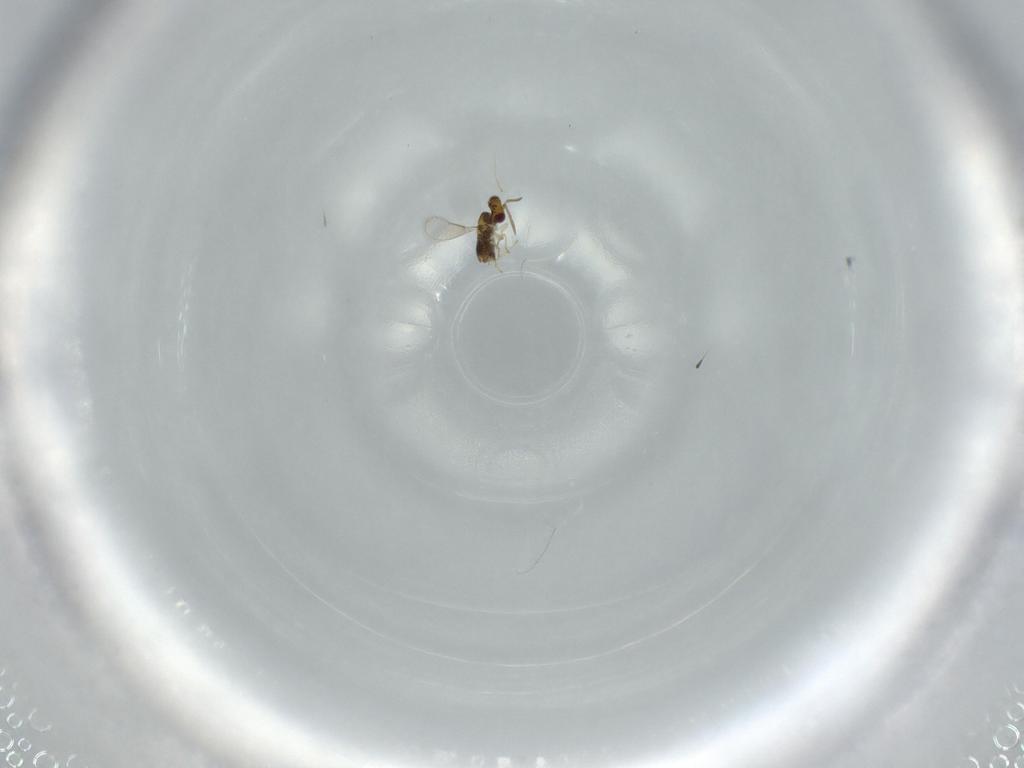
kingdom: Animalia
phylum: Arthropoda
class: Insecta
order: Hymenoptera
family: Aphelinidae
